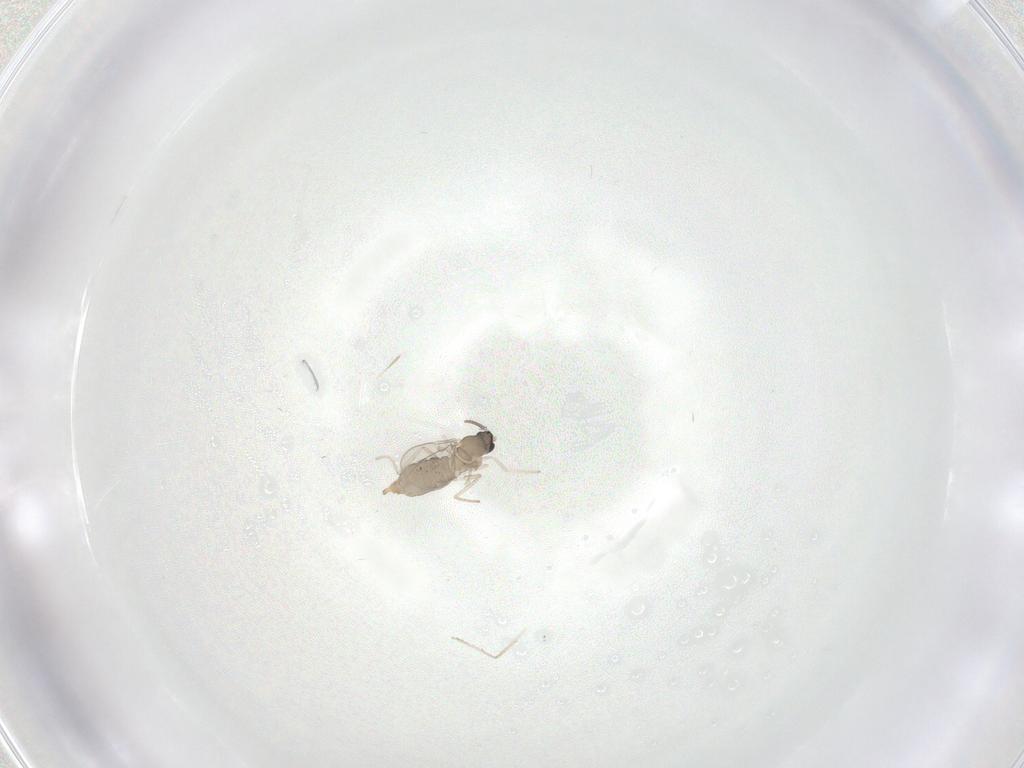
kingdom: Animalia
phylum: Arthropoda
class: Insecta
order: Diptera
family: Cecidomyiidae
